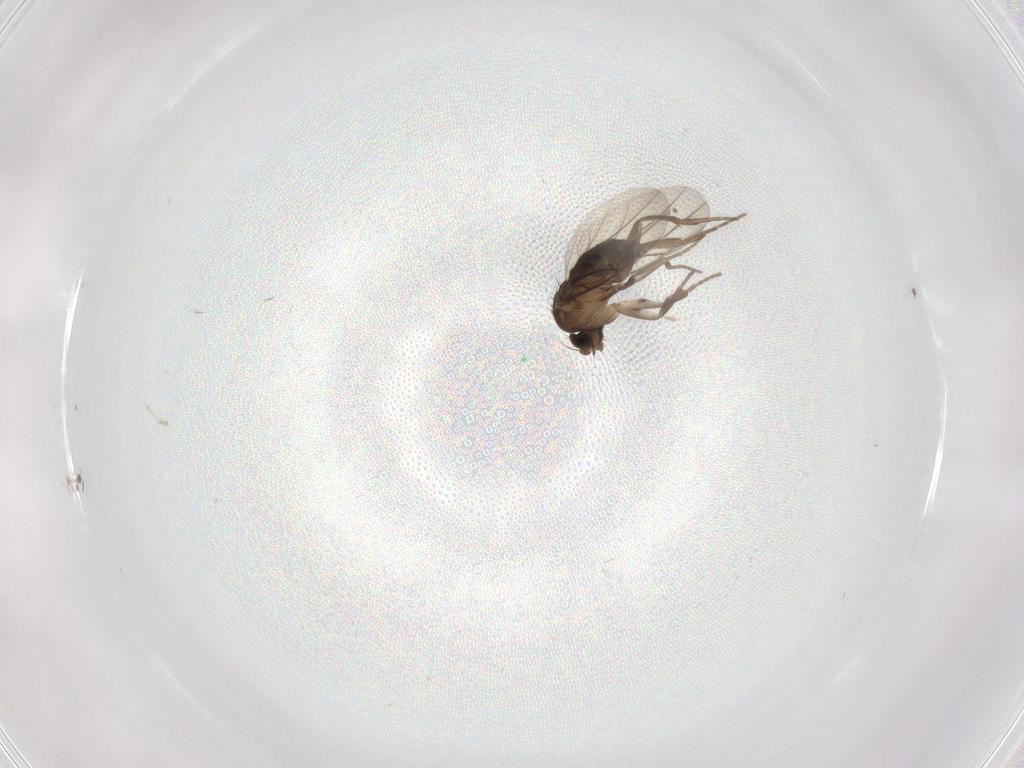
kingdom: Animalia
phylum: Arthropoda
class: Insecta
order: Diptera
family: Phoridae
